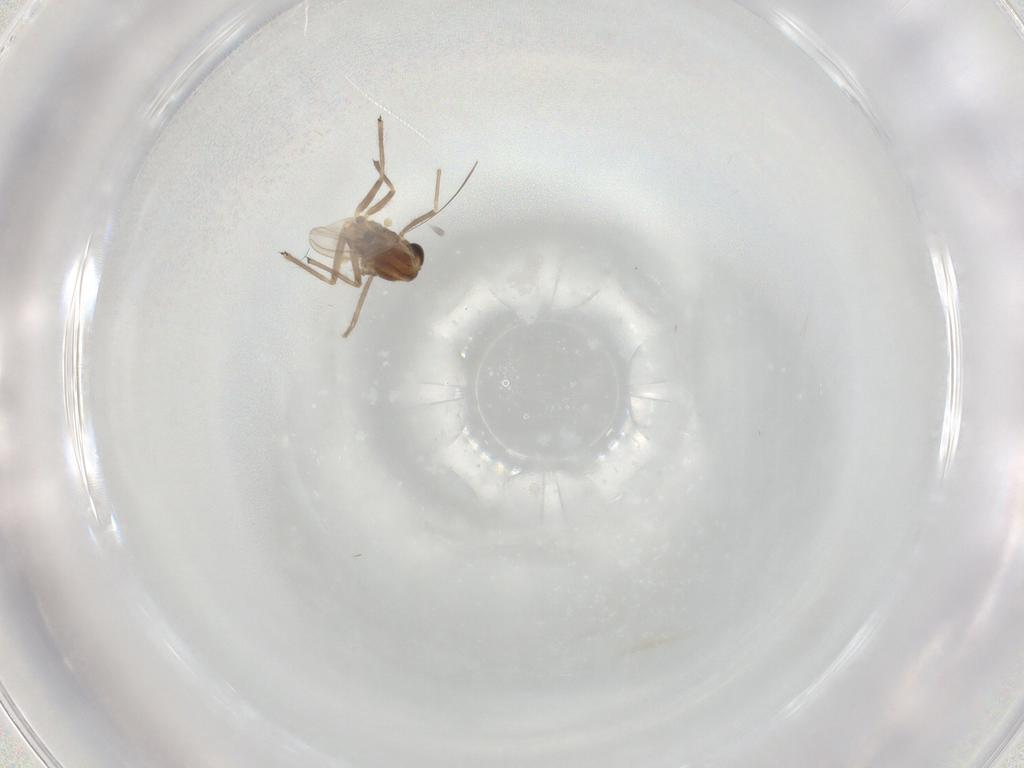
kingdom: Animalia
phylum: Arthropoda
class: Insecta
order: Diptera
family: Chironomidae
